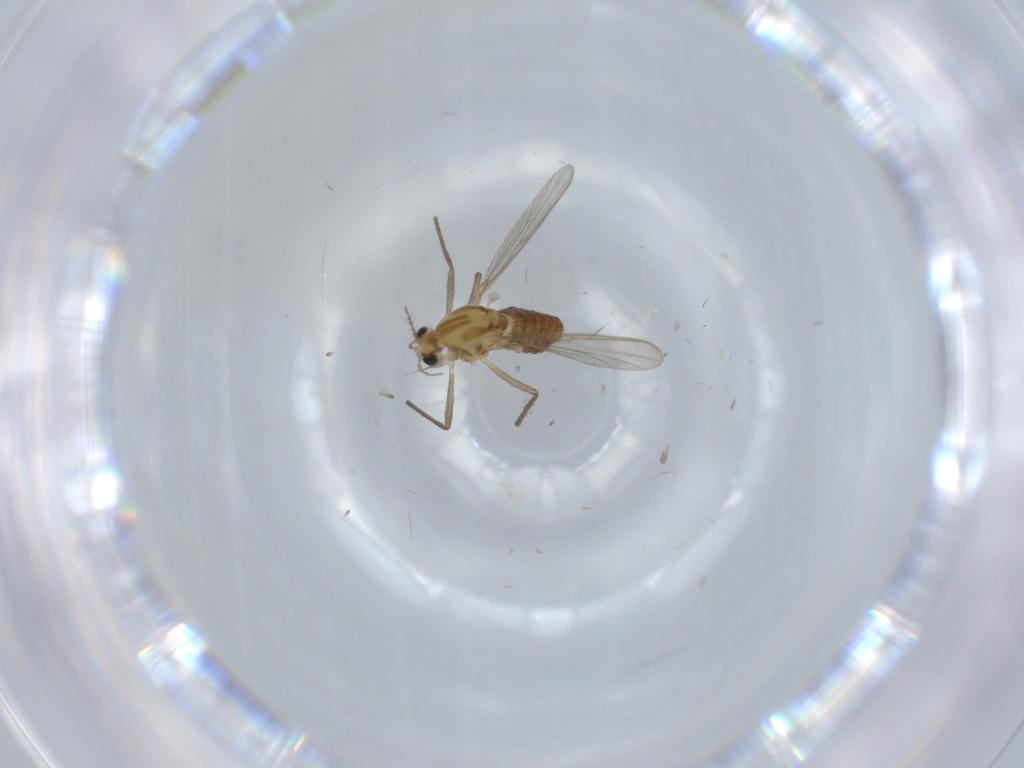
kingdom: Animalia
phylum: Arthropoda
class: Insecta
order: Diptera
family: Chironomidae
